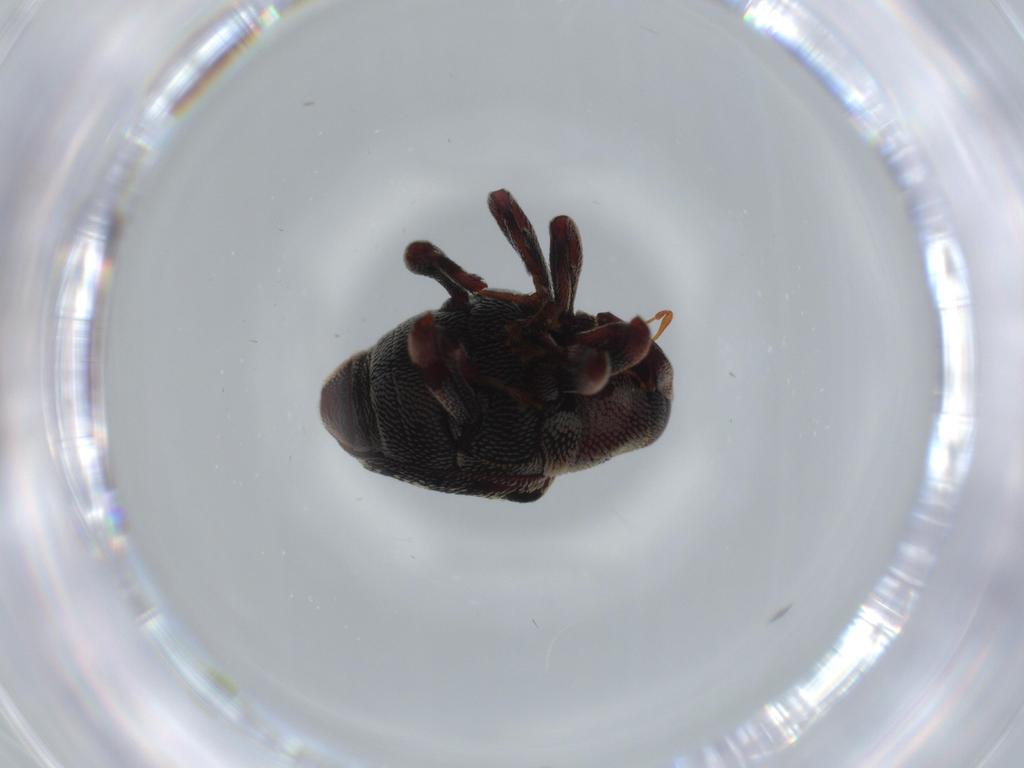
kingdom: Animalia
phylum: Arthropoda
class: Insecta
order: Coleoptera
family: Curculionidae
